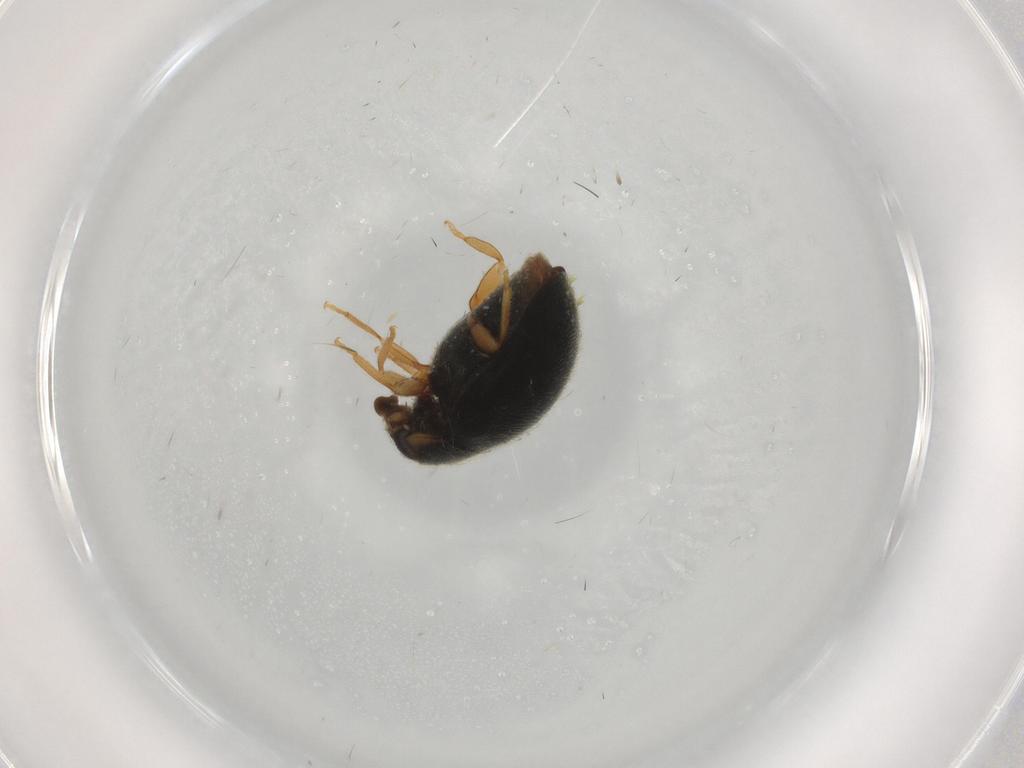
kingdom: Animalia
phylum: Arthropoda
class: Insecta
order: Coleoptera
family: Coccinellidae
